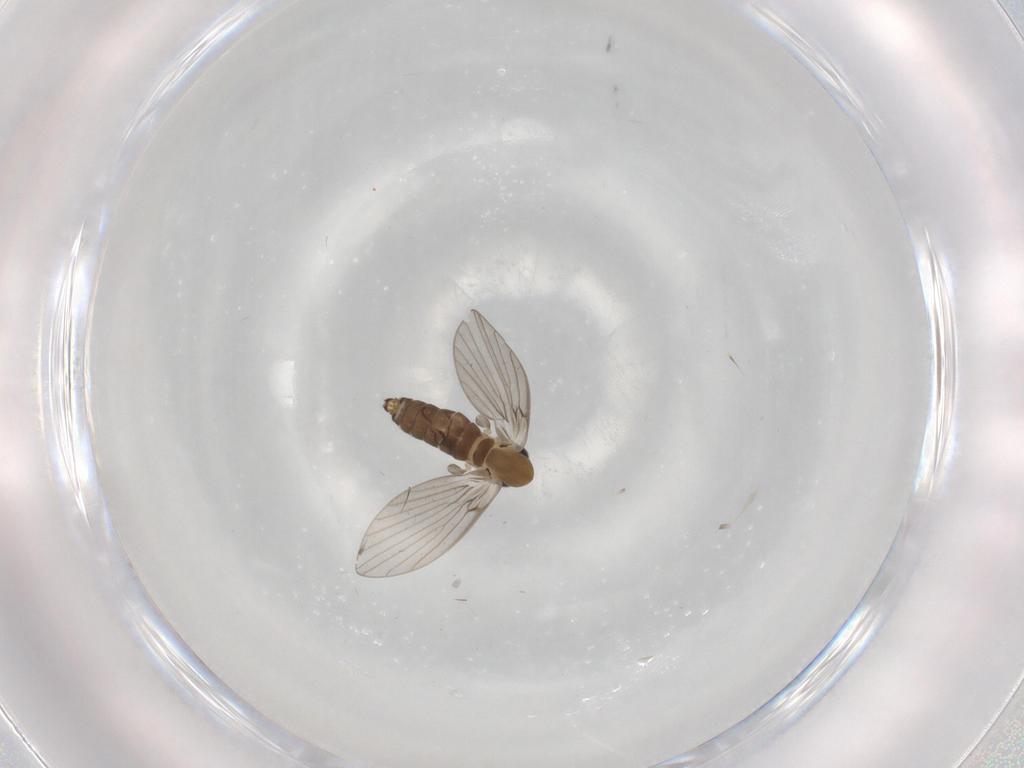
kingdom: Animalia
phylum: Arthropoda
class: Insecta
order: Diptera
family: Psychodidae
